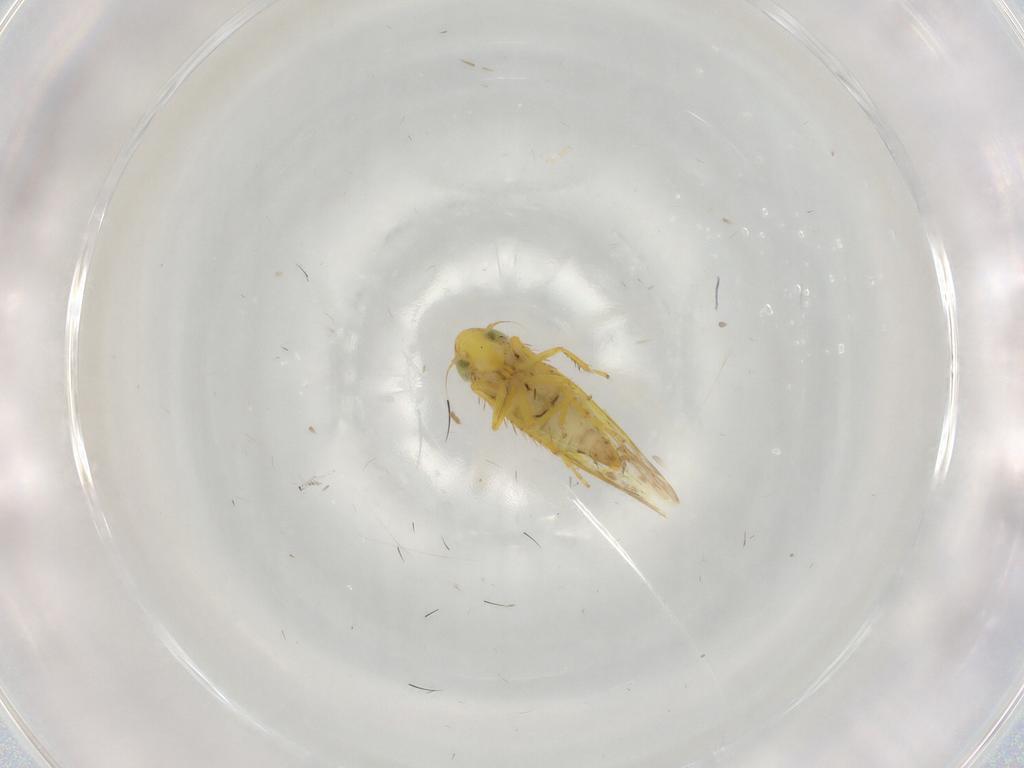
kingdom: Animalia
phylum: Arthropoda
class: Insecta
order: Hemiptera
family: Cicadellidae
